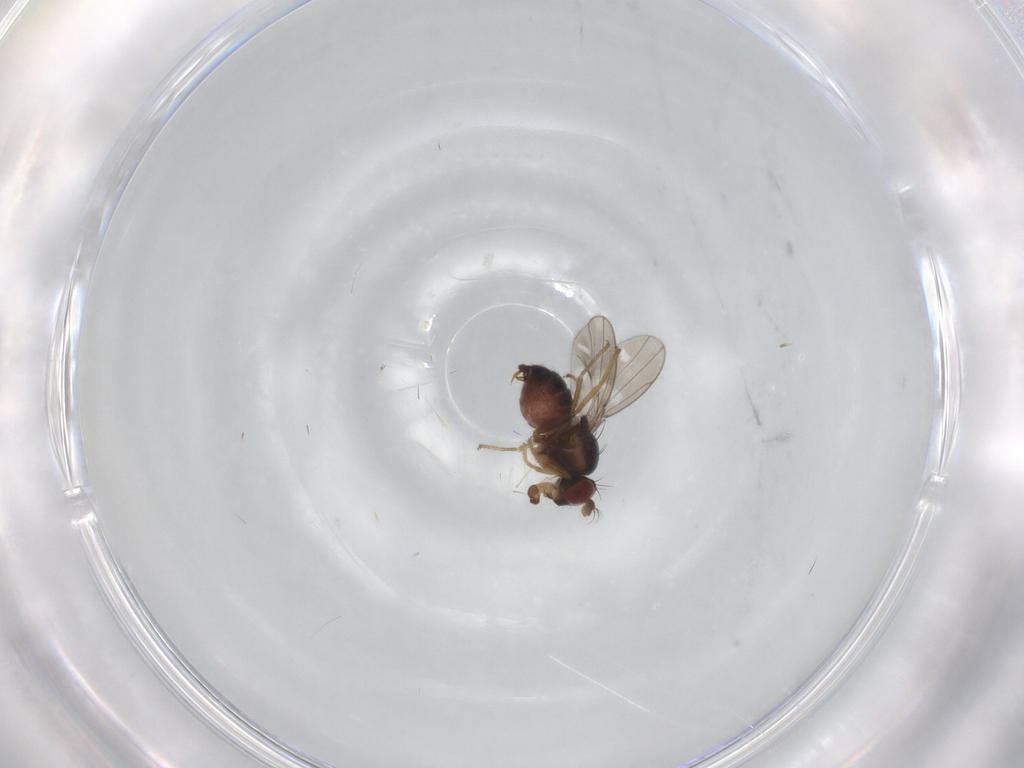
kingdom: Animalia
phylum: Arthropoda
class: Insecta
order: Diptera
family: Ephydridae
